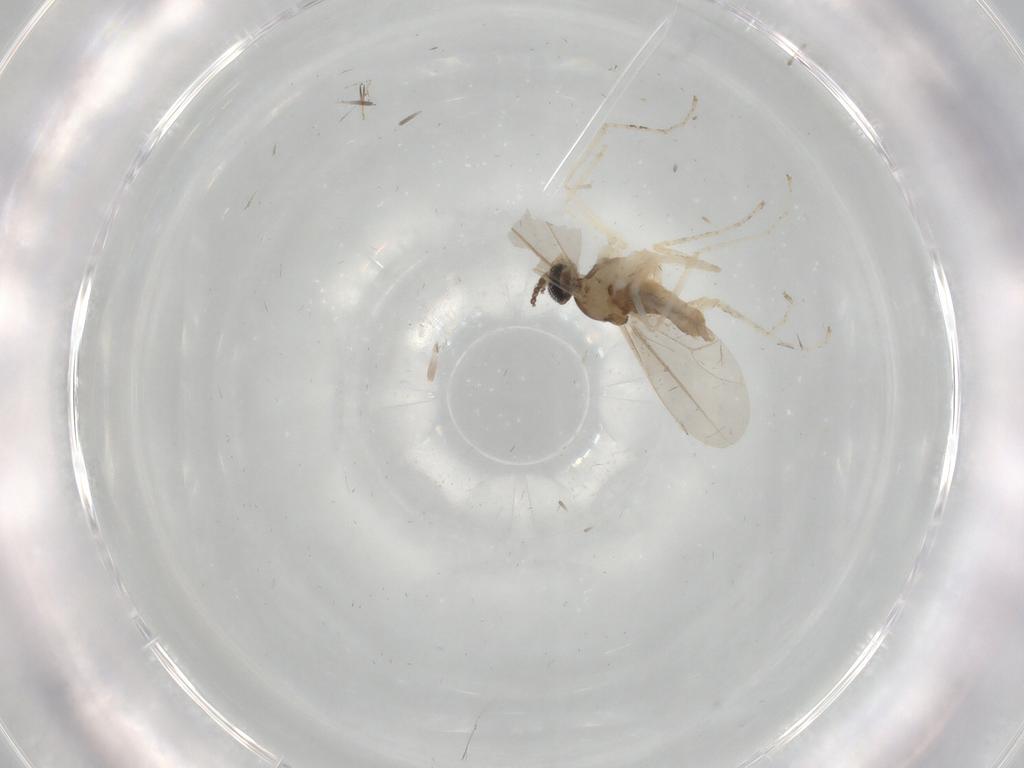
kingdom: Animalia
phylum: Arthropoda
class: Insecta
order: Diptera
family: Cecidomyiidae
